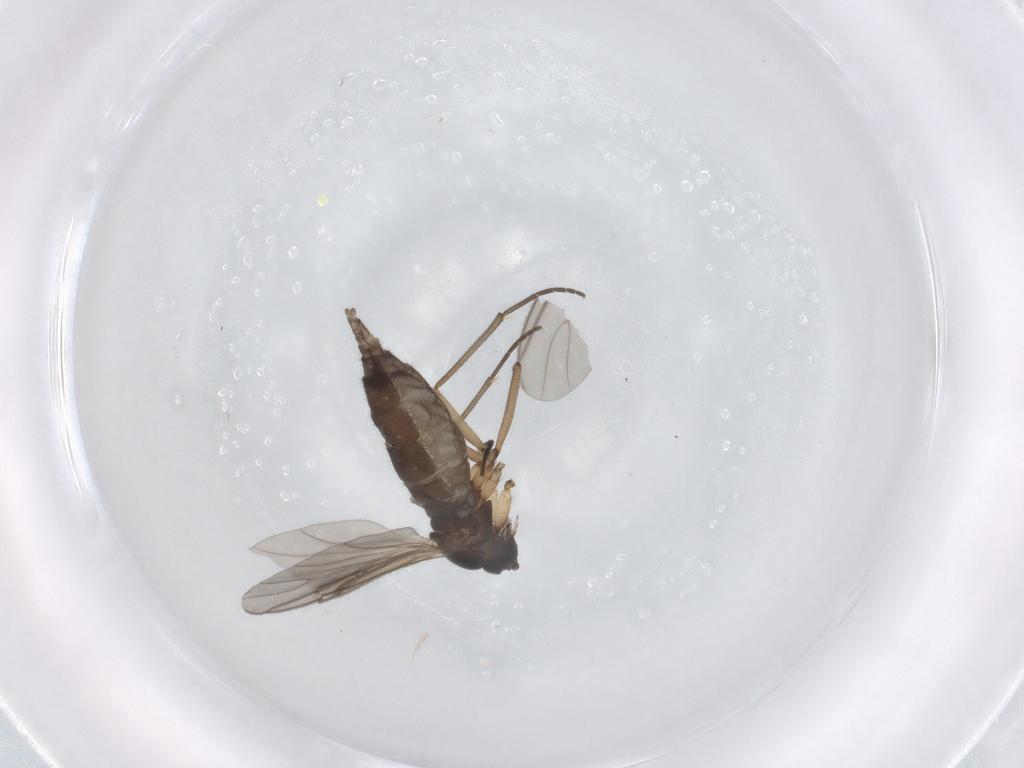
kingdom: Animalia
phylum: Arthropoda
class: Insecta
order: Diptera
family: Sciaridae
